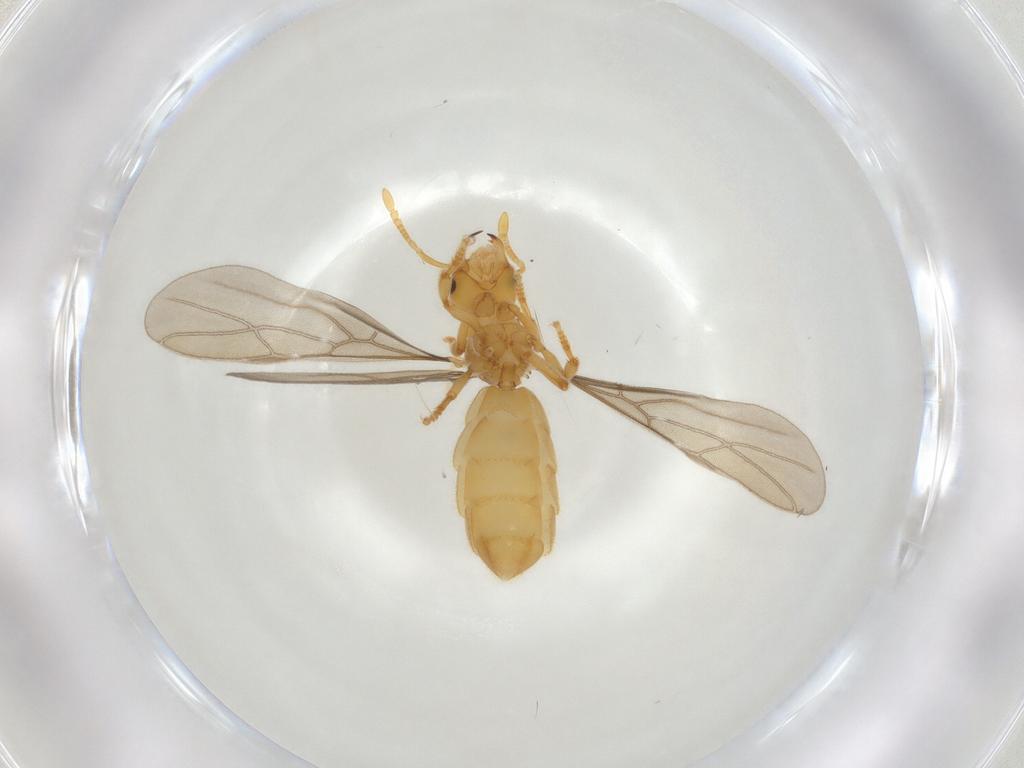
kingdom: Animalia
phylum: Arthropoda
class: Insecta
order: Hymenoptera
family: Formicidae
